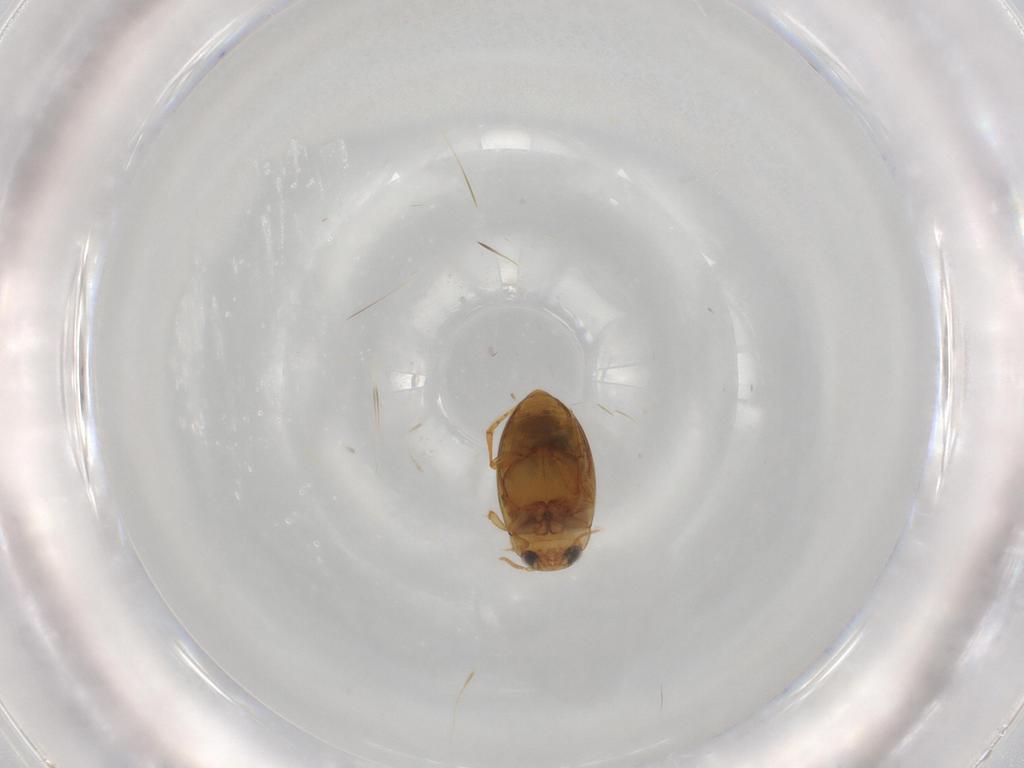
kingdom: Animalia
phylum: Arthropoda
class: Insecta
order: Coleoptera
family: Dytiscidae
